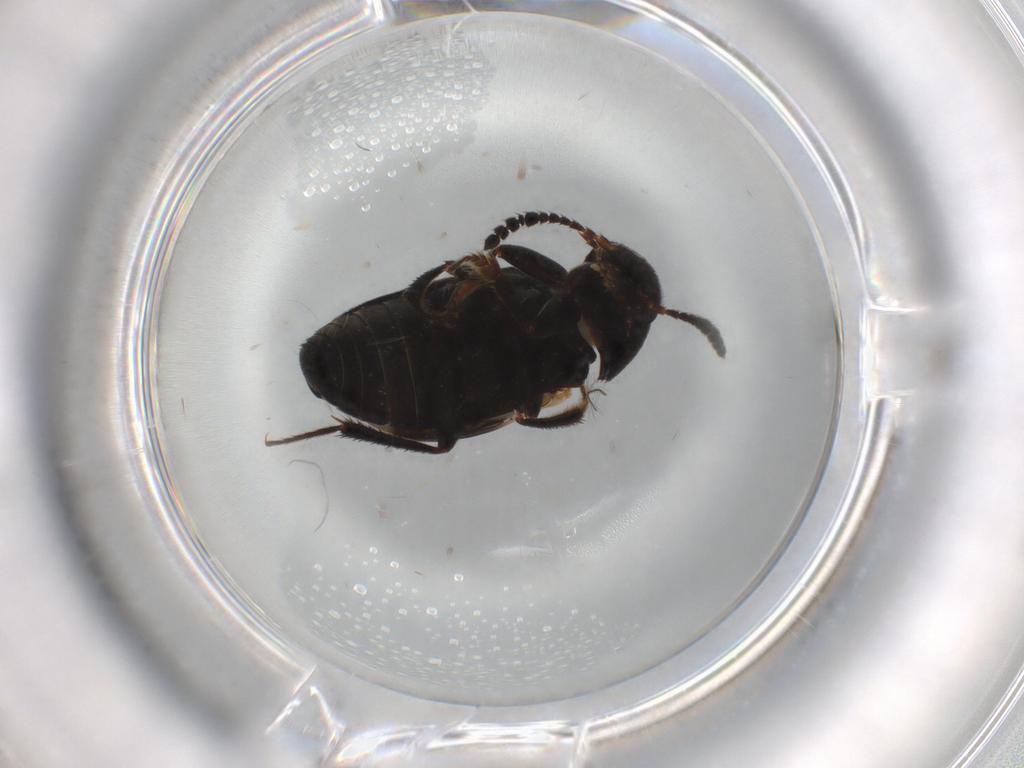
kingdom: Animalia
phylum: Arthropoda
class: Insecta
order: Coleoptera
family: Leiodidae
